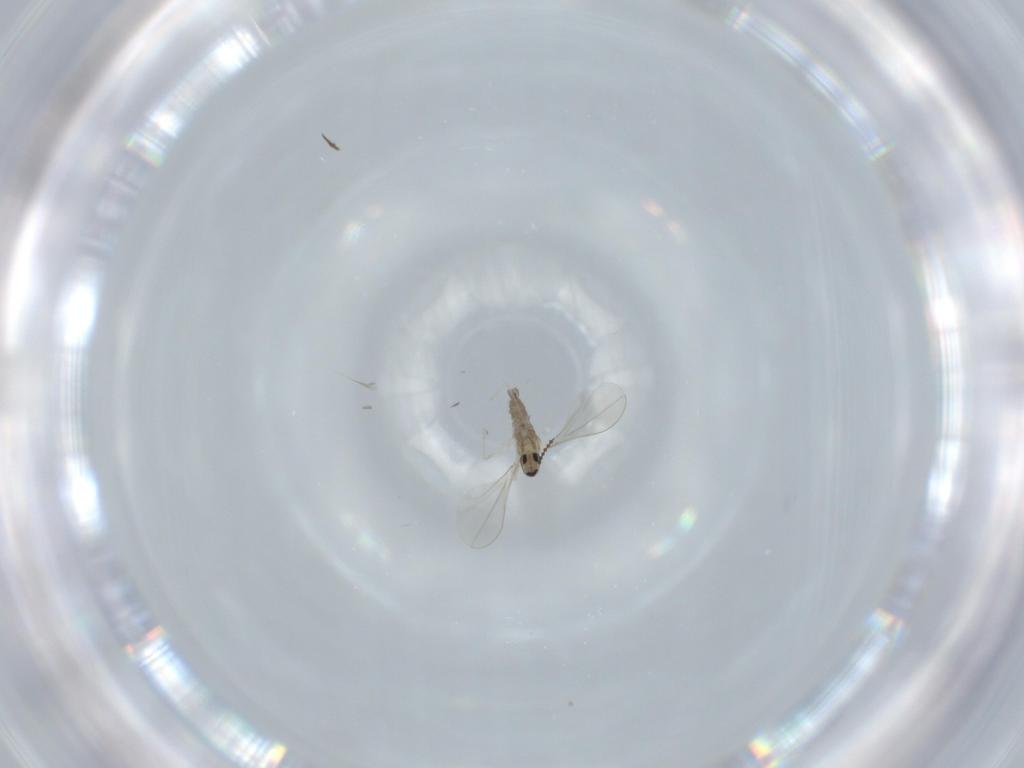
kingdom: Animalia
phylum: Arthropoda
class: Insecta
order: Diptera
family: Cecidomyiidae
